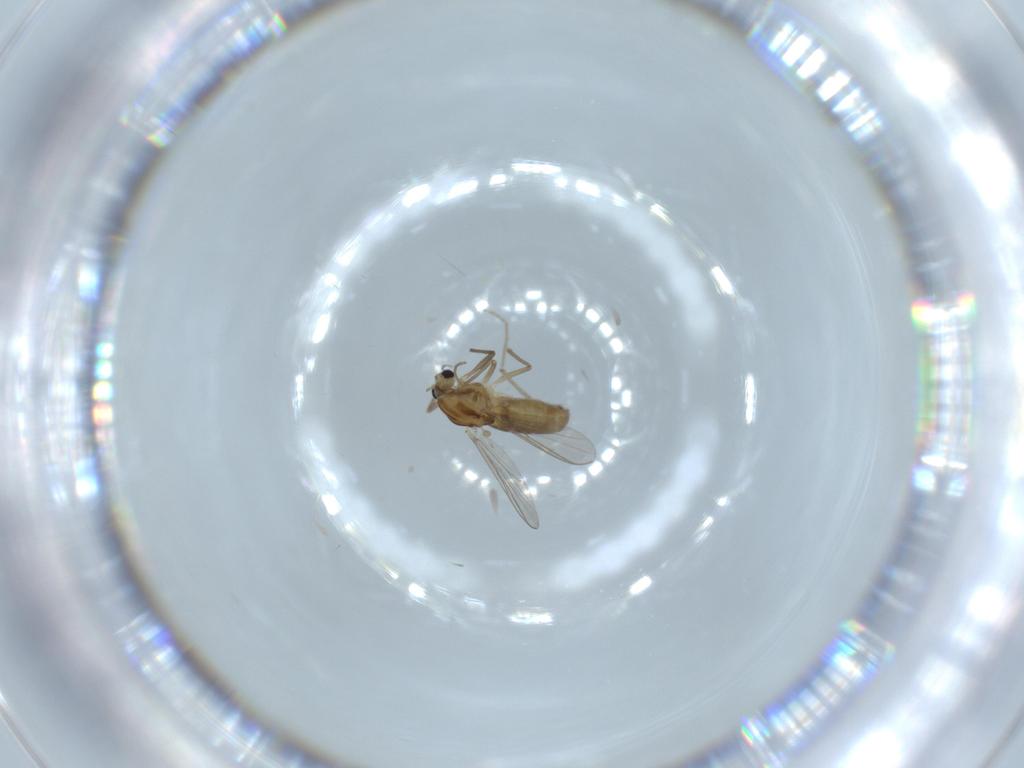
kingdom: Animalia
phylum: Arthropoda
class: Insecta
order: Diptera
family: Chironomidae
